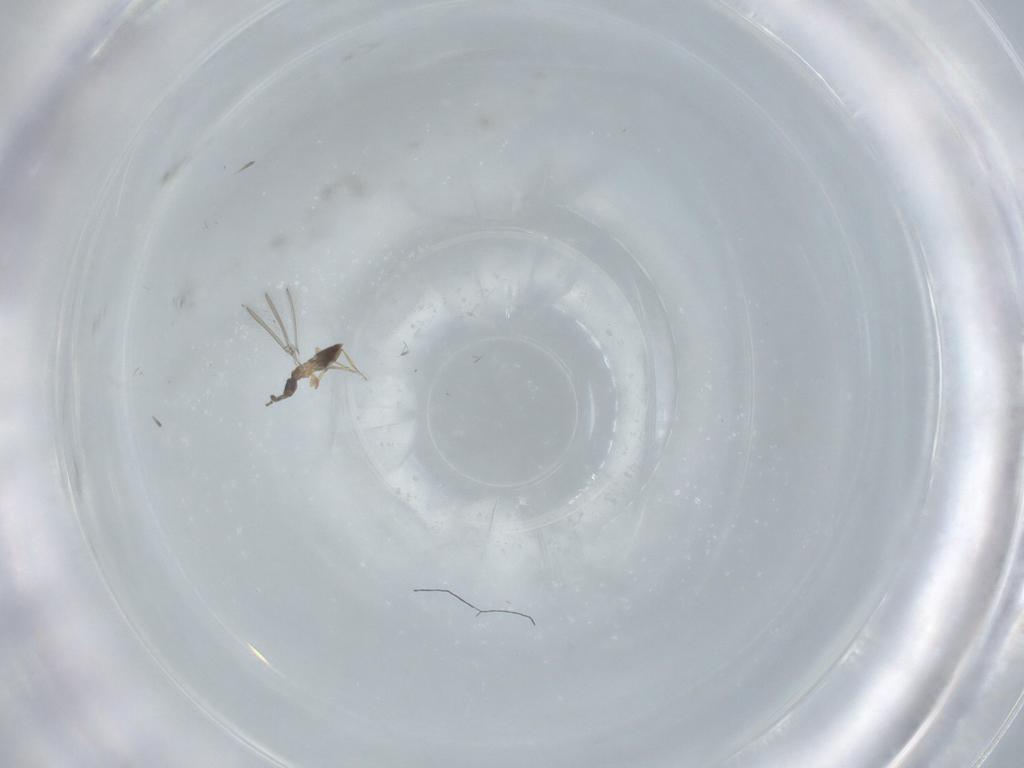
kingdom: Animalia
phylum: Arthropoda
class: Insecta
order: Hymenoptera
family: Mymaridae
